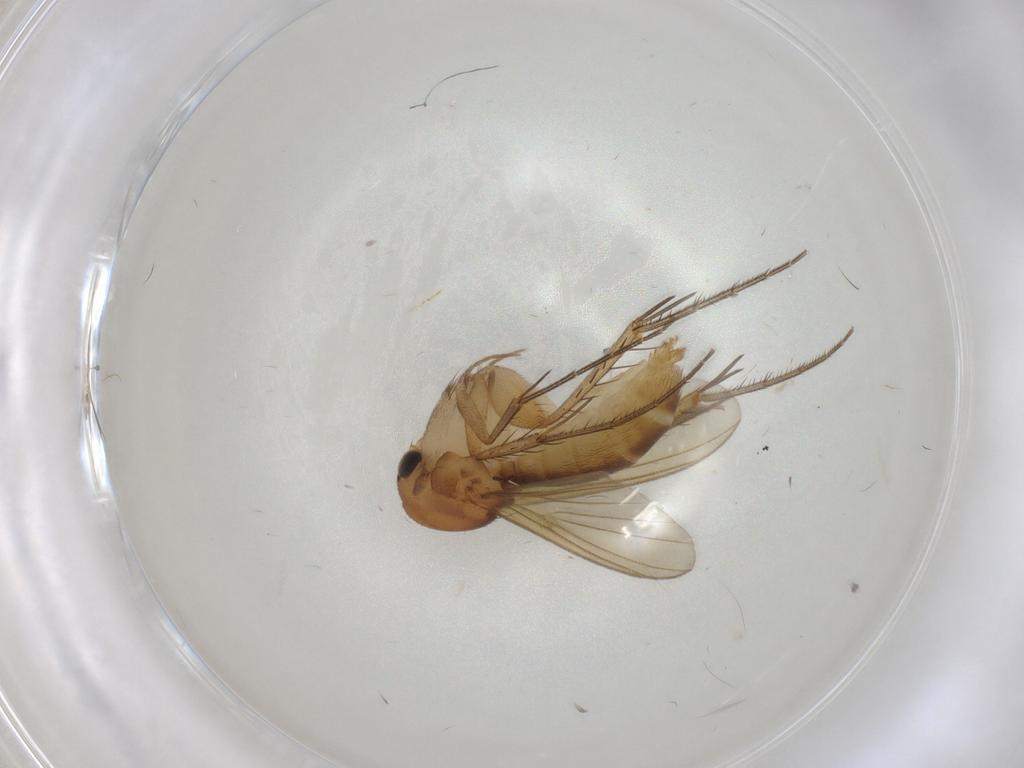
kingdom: Animalia
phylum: Arthropoda
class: Insecta
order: Diptera
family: Mycetophilidae
